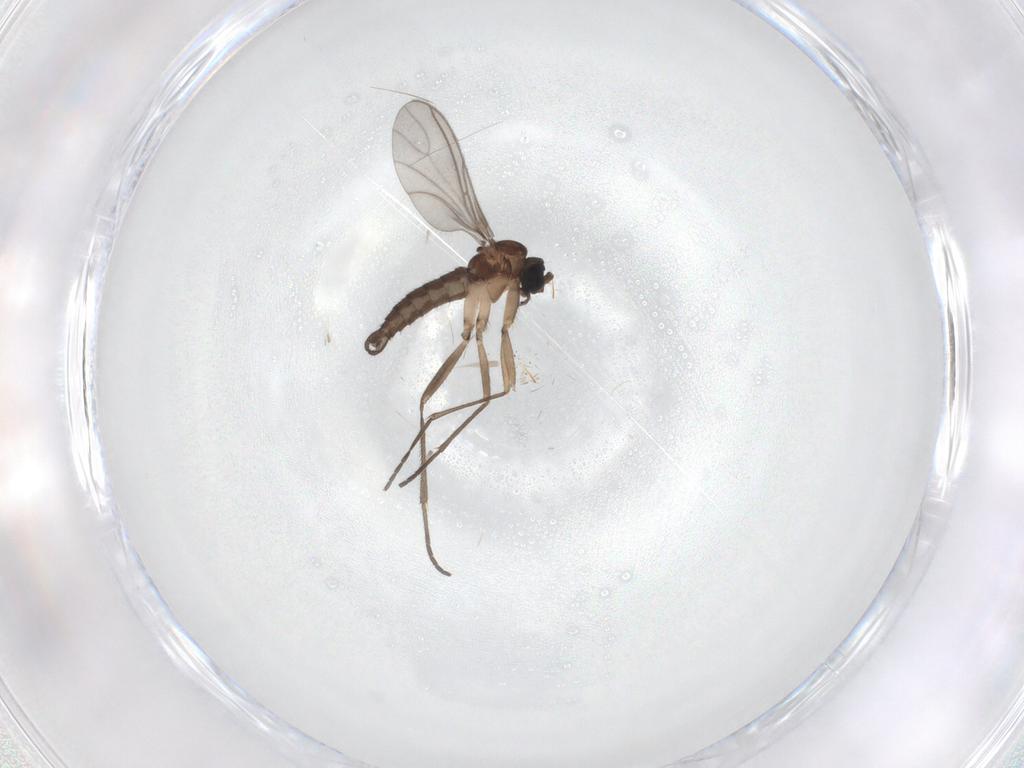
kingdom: Animalia
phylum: Arthropoda
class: Insecta
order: Diptera
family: Sciaridae
